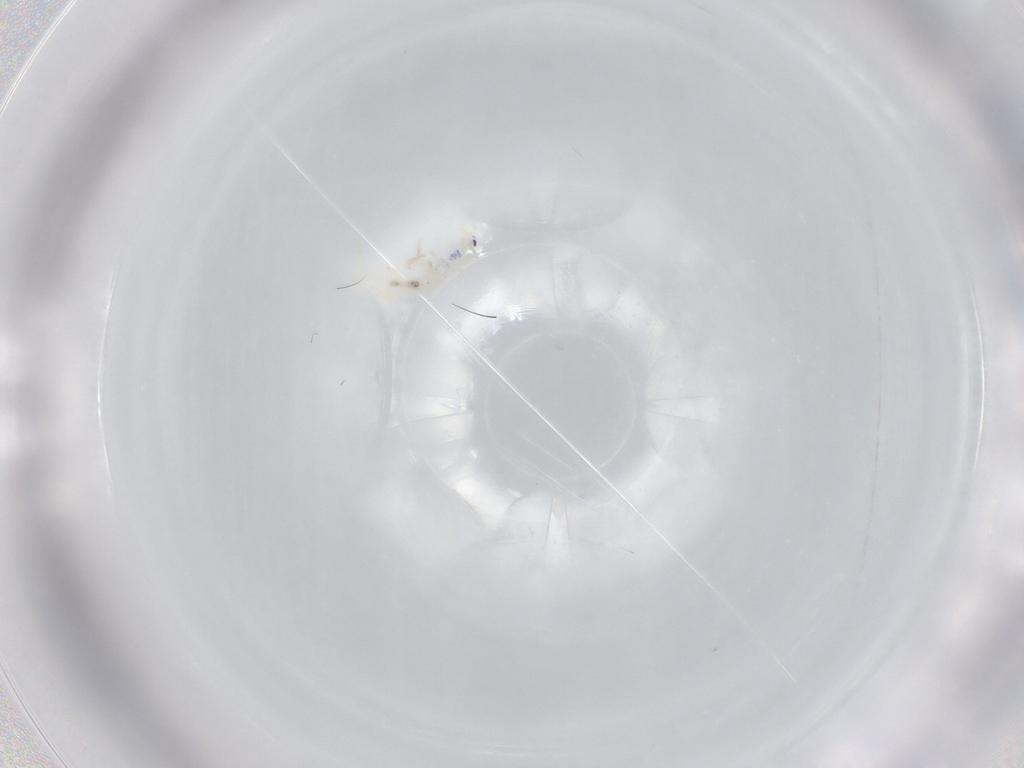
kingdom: Animalia
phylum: Arthropoda
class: Collembola
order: Entomobryomorpha
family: Entomobryidae
